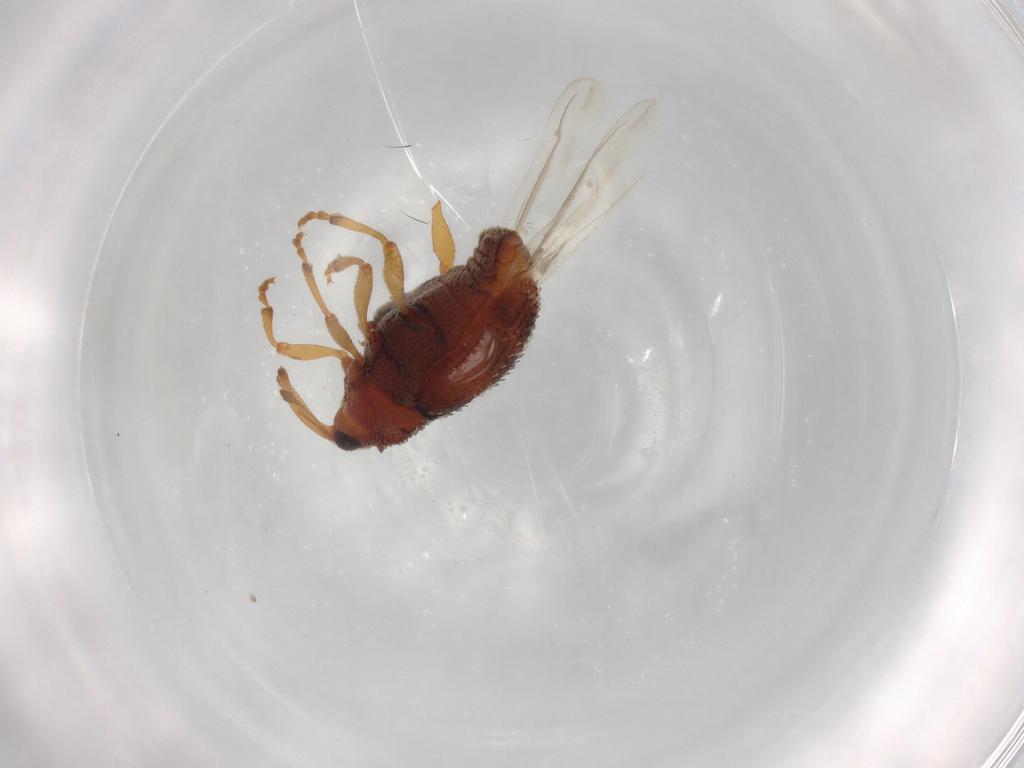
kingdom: Animalia
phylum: Arthropoda
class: Insecta
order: Coleoptera
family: Curculionidae
